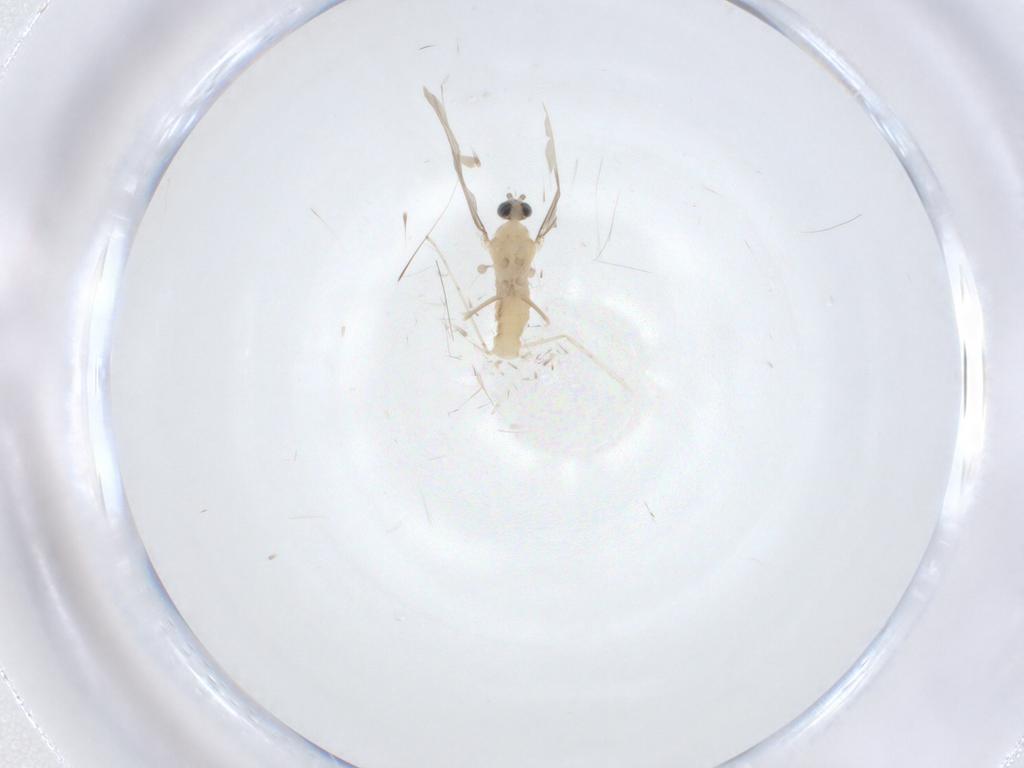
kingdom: Animalia
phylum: Arthropoda
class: Insecta
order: Diptera
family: Cecidomyiidae
